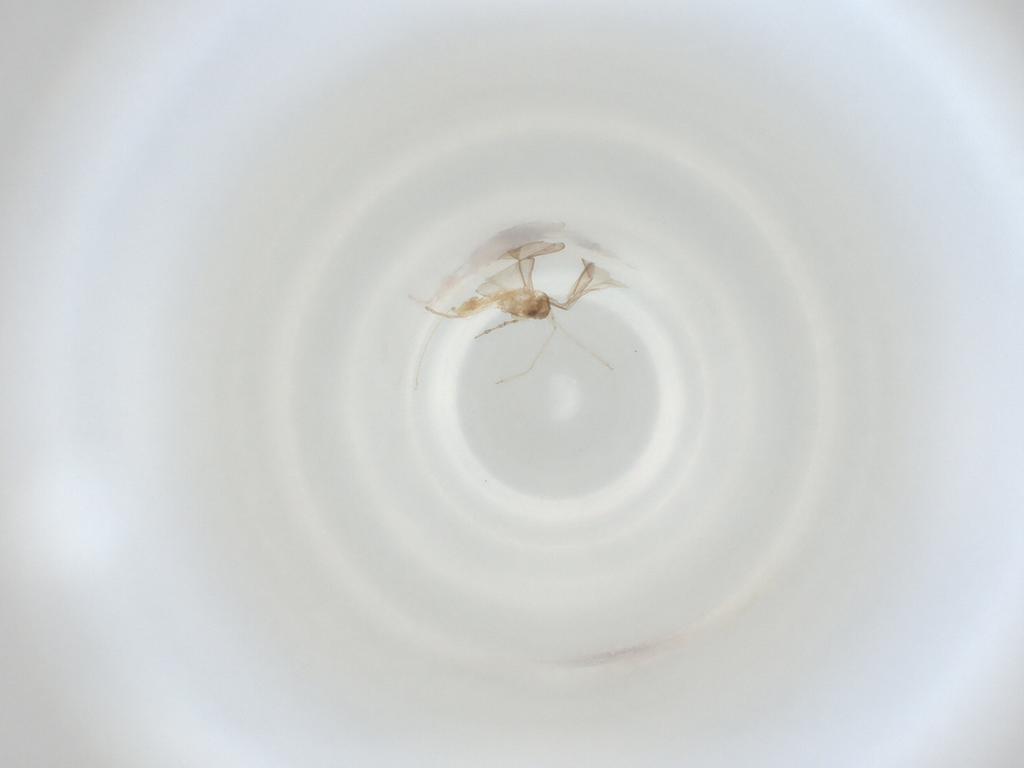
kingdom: Animalia
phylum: Arthropoda
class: Insecta
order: Diptera
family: Cecidomyiidae
